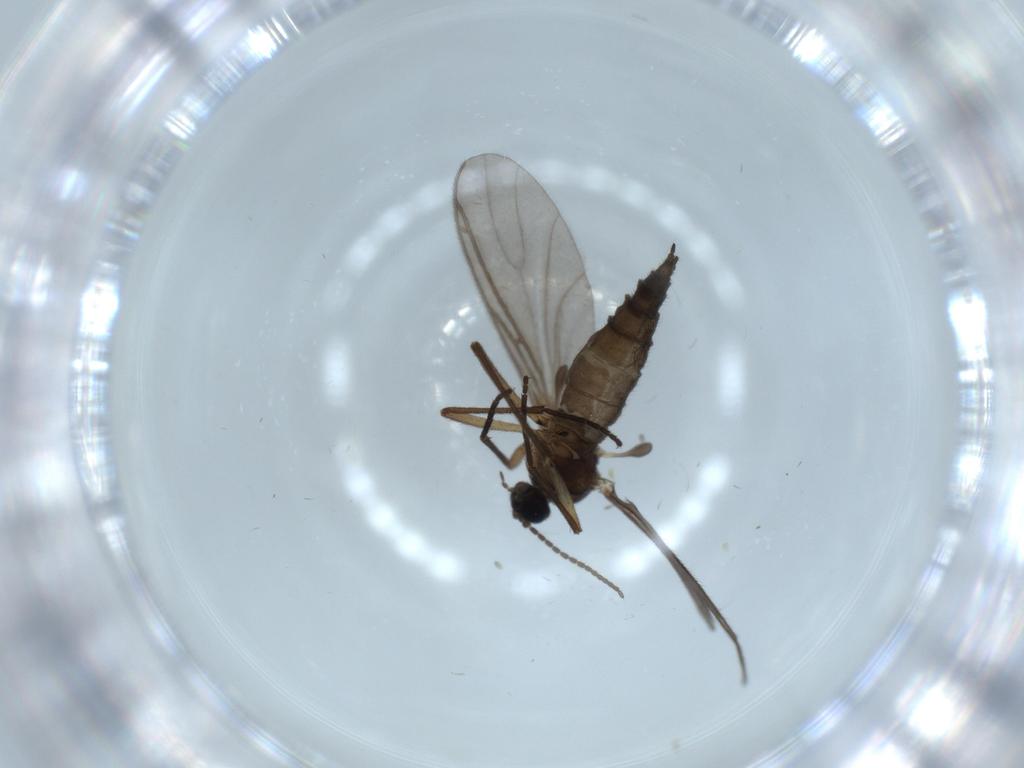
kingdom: Animalia
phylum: Arthropoda
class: Insecta
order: Diptera
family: Sciaridae
